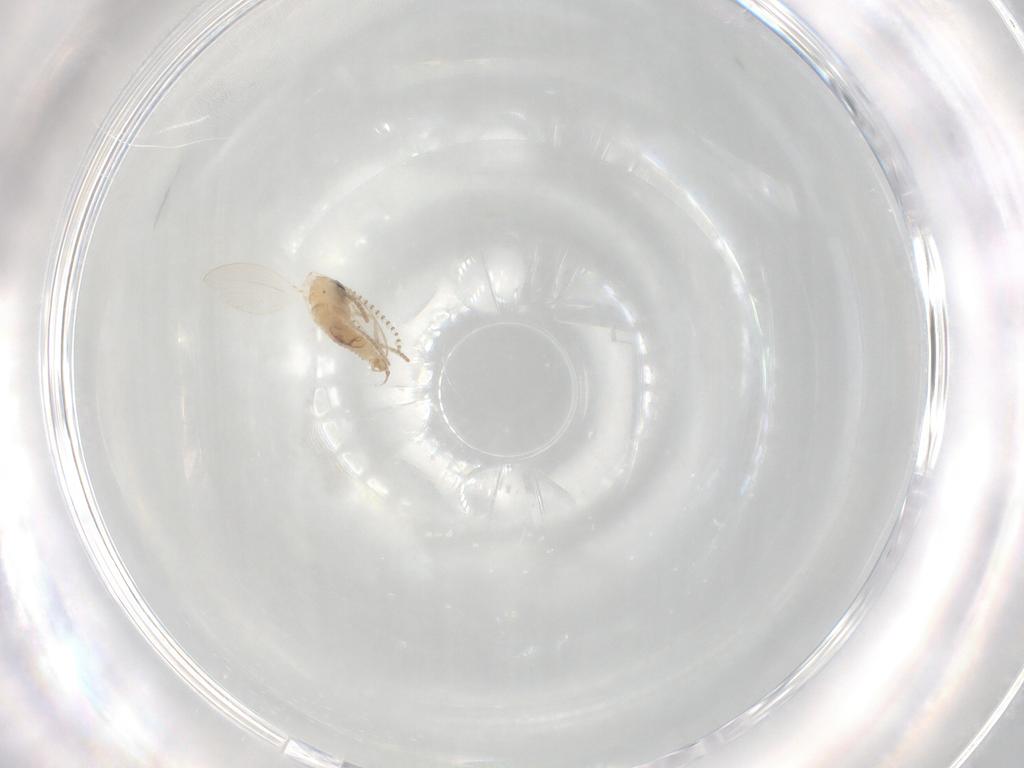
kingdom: Animalia
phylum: Arthropoda
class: Insecta
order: Diptera
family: Psychodidae
